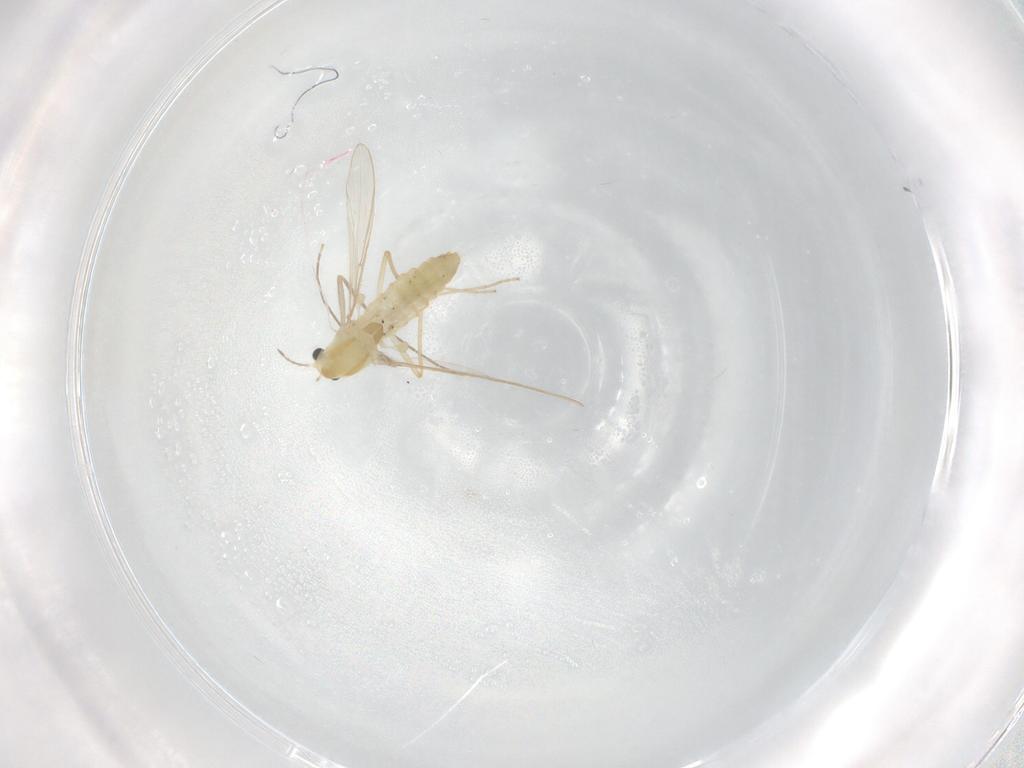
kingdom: Animalia
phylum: Arthropoda
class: Insecta
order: Diptera
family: Chironomidae
